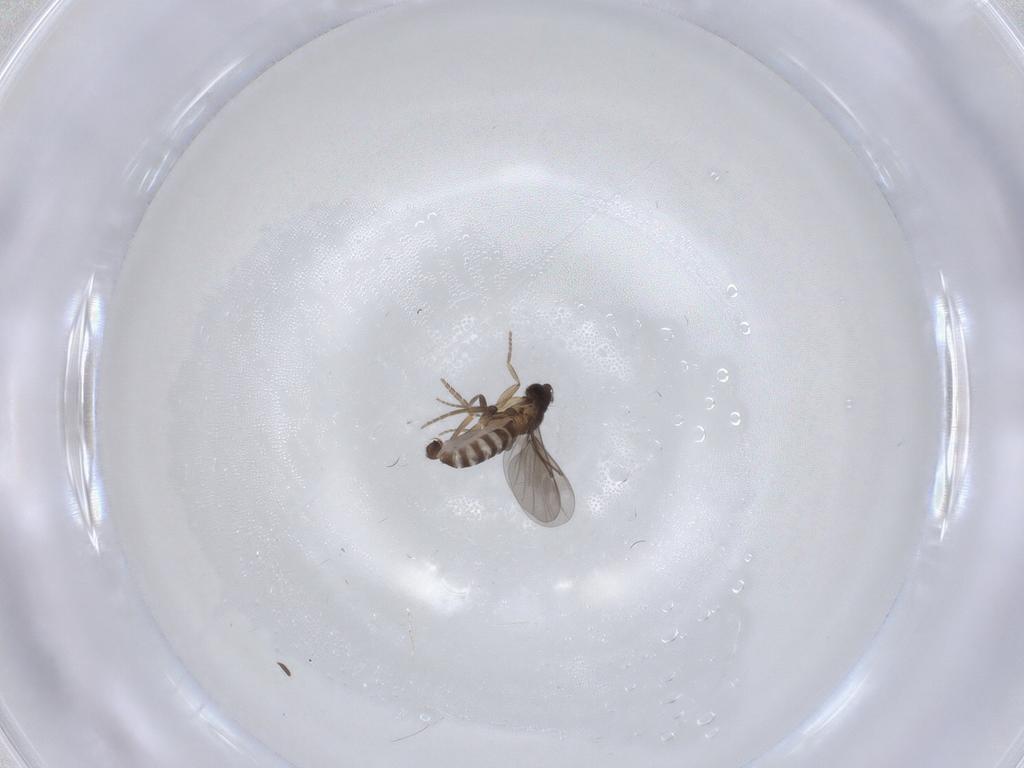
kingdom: Animalia
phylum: Arthropoda
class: Insecta
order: Diptera
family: Phoridae
